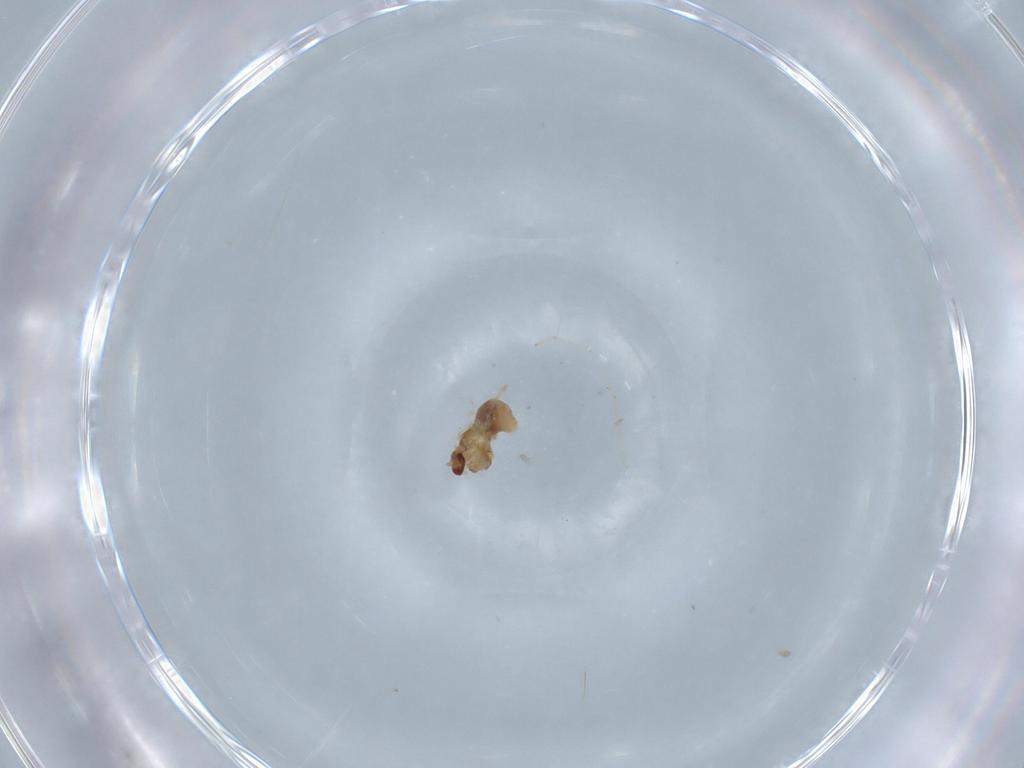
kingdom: Animalia
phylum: Arthropoda
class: Insecta
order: Diptera
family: Cecidomyiidae
